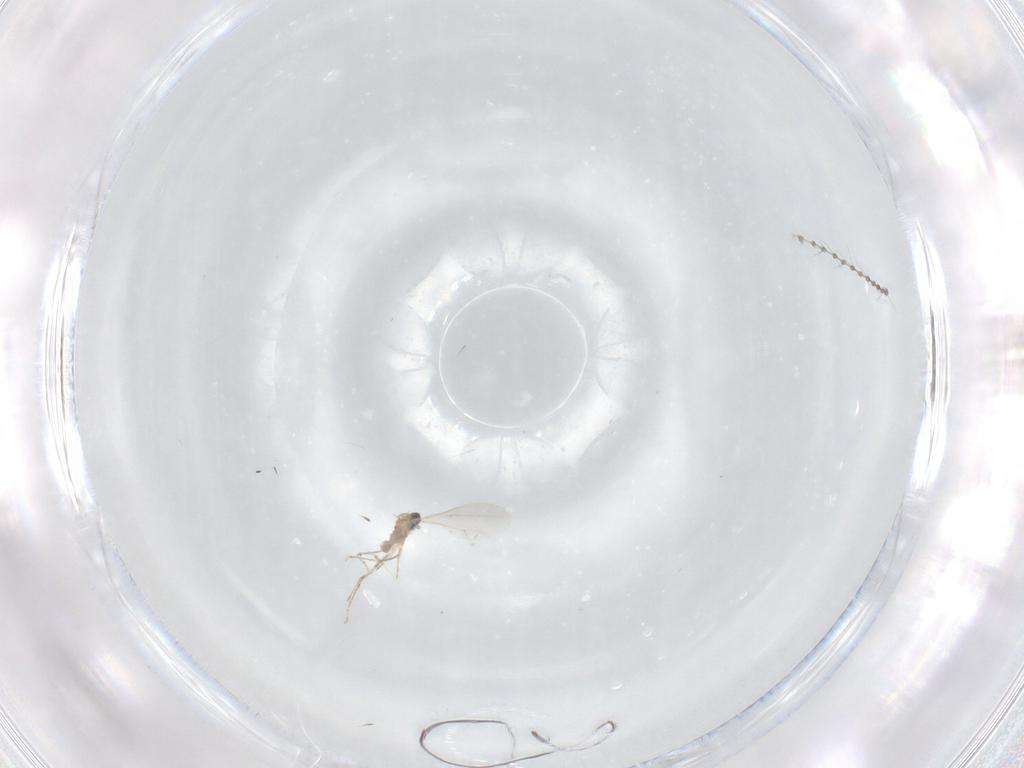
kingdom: Animalia
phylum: Arthropoda
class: Insecta
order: Diptera
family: Cecidomyiidae
